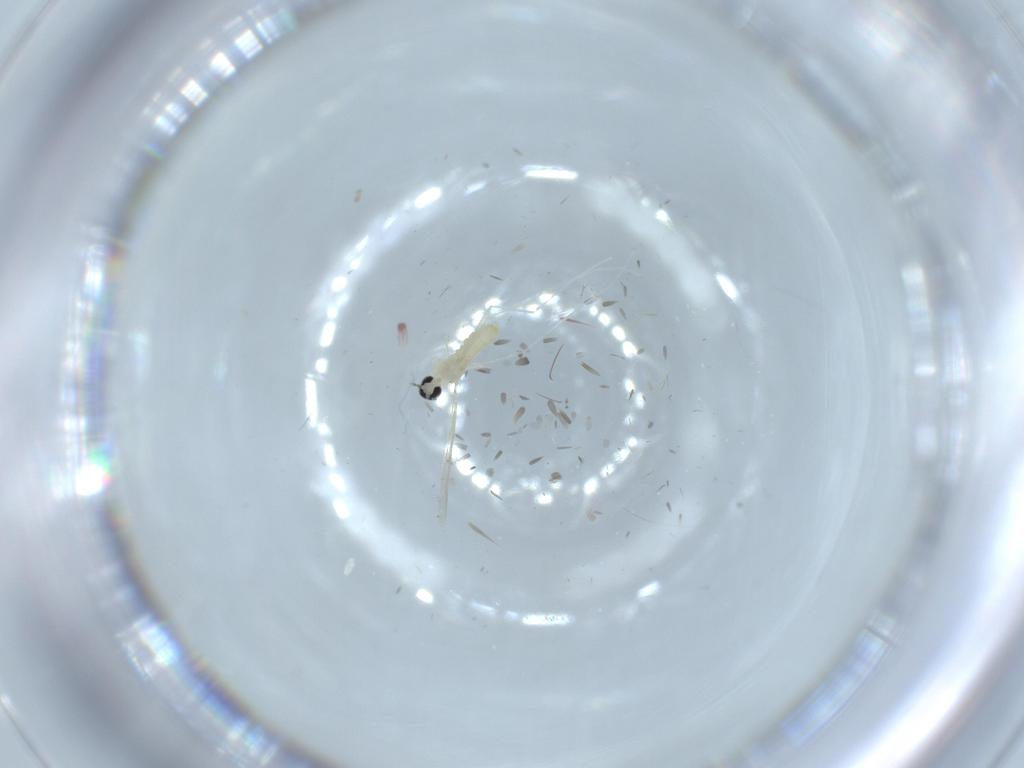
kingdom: Animalia
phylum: Arthropoda
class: Insecta
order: Diptera
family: Cecidomyiidae
